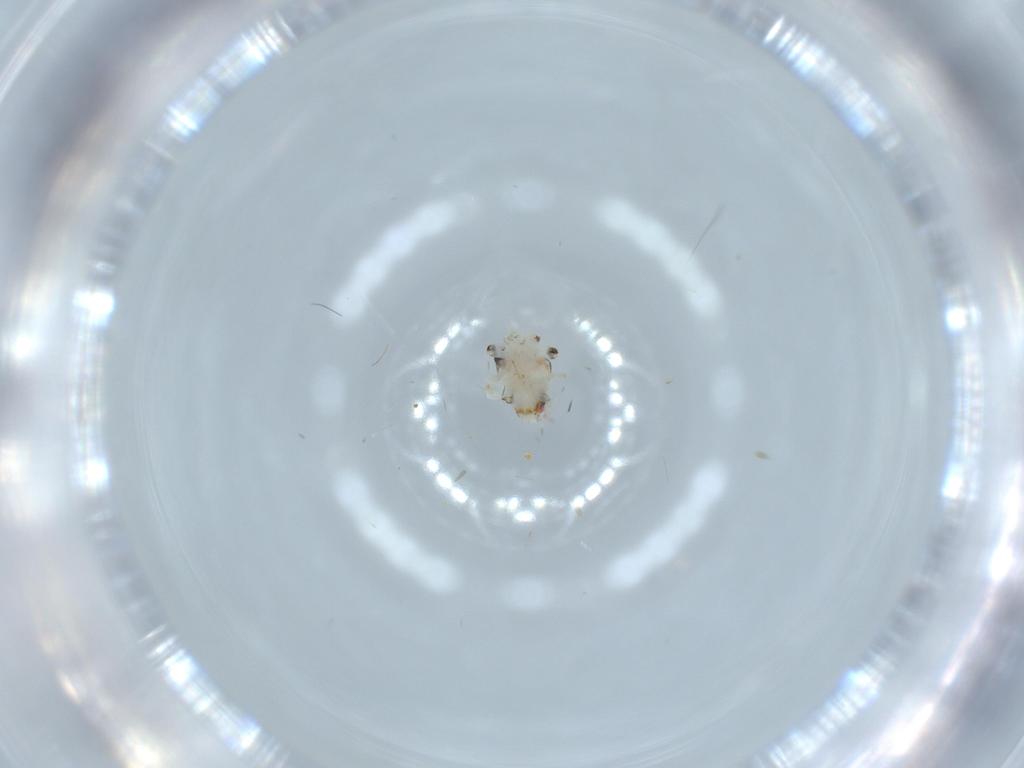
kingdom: Animalia
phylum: Arthropoda
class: Insecta
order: Hemiptera
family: Nogodinidae
